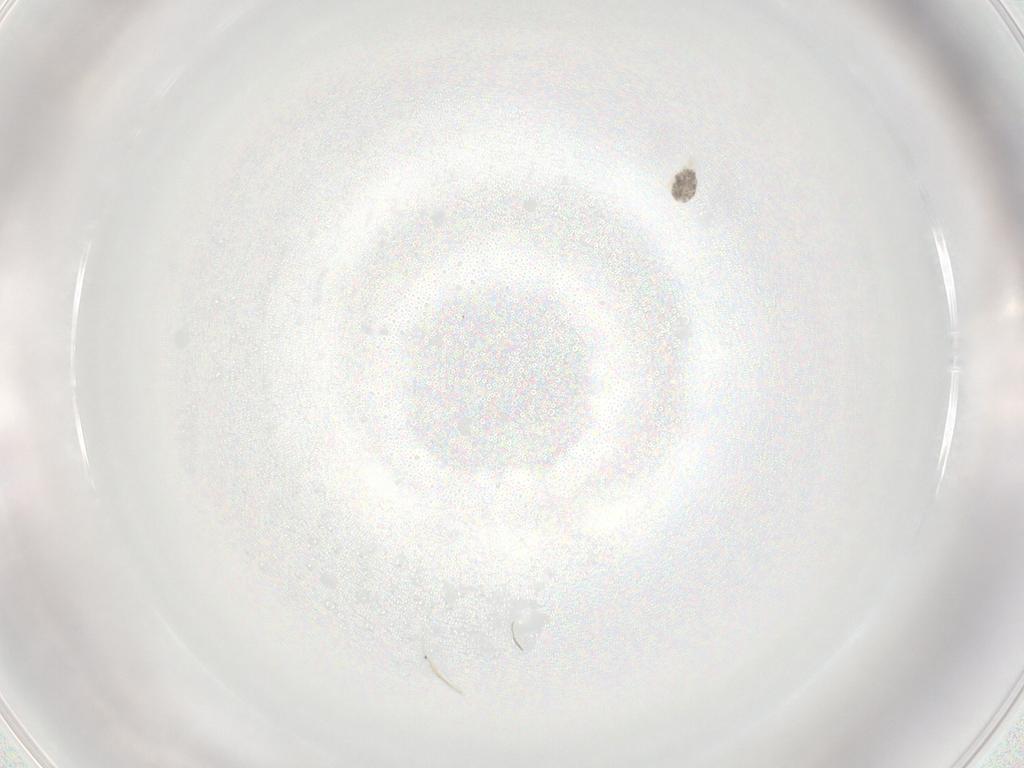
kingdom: Animalia
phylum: Arthropoda
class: Arachnida
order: Trombidiformes
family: Eupodidae
